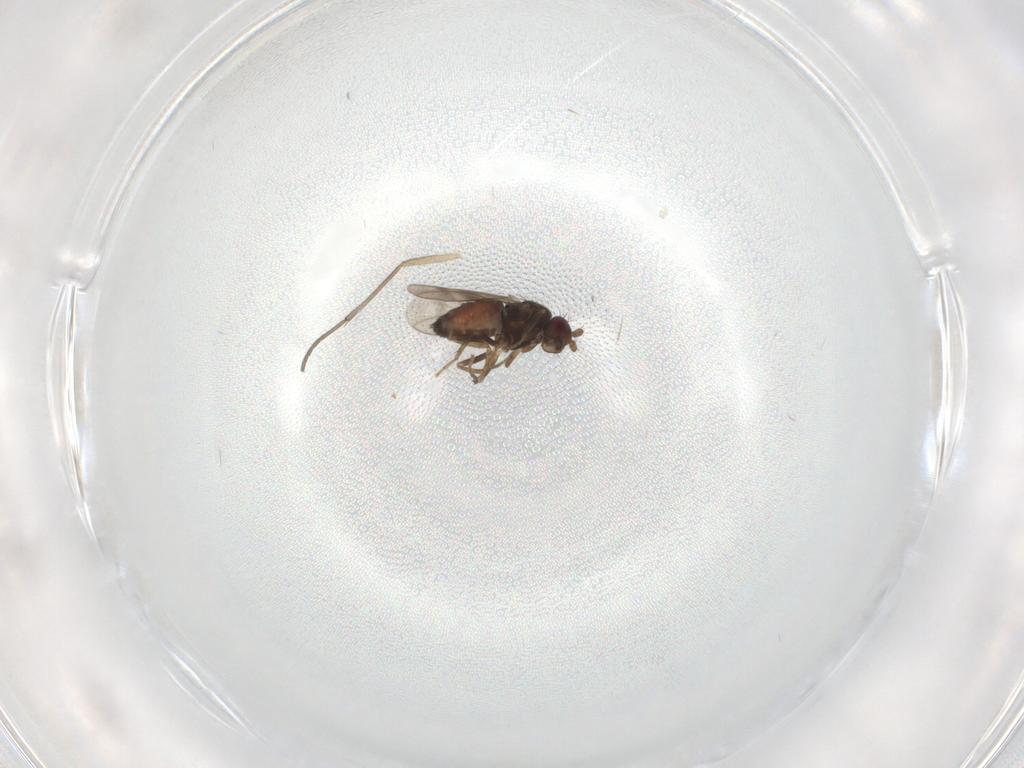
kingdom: Animalia
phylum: Arthropoda
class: Insecta
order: Diptera
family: Sphaeroceridae
